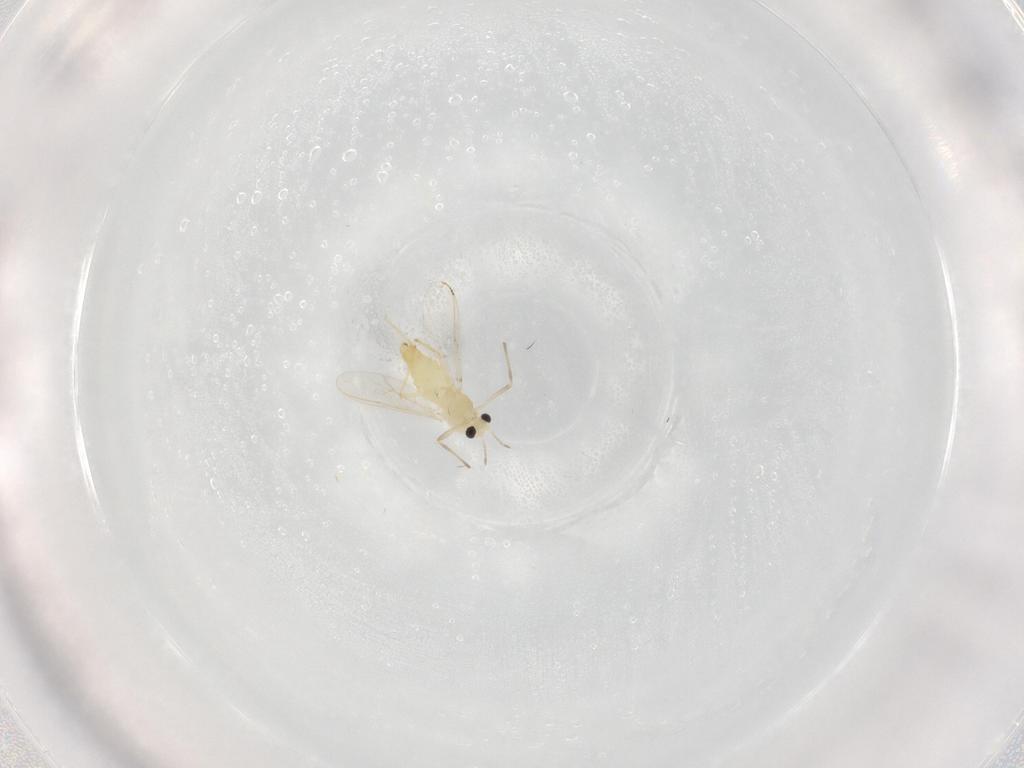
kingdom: Animalia
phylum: Arthropoda
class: Insecta
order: Diptera
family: Chironomidae
